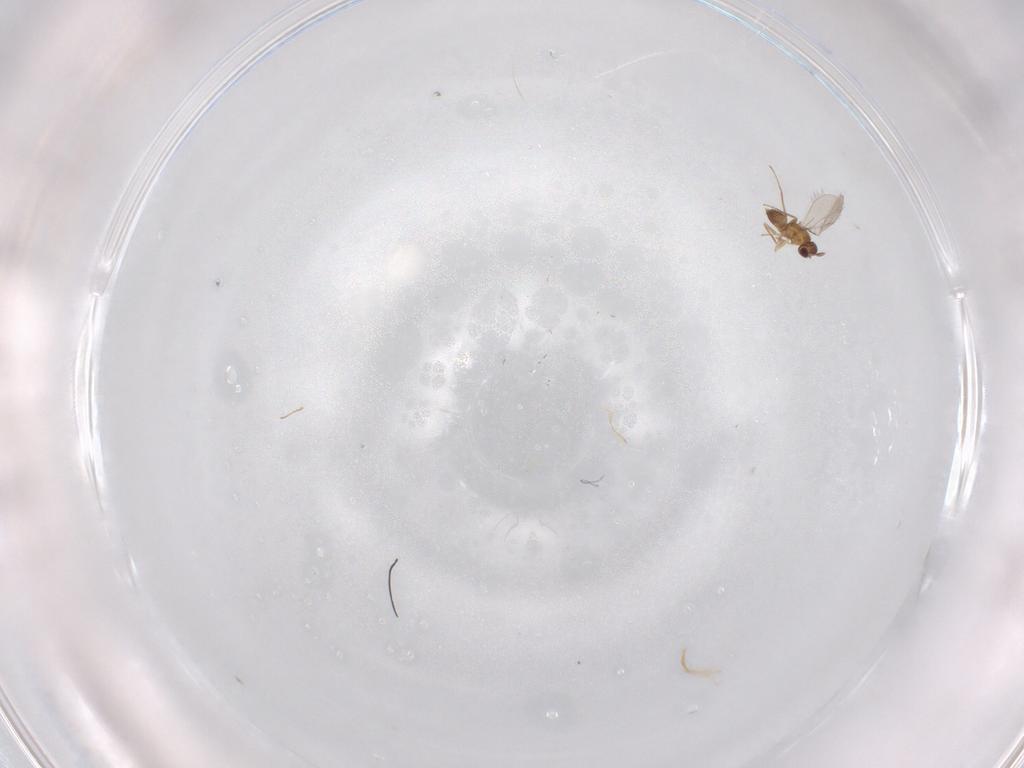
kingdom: Animalia
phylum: Arthropoda
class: Insecta
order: Hymenoptera
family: Mymaridae
